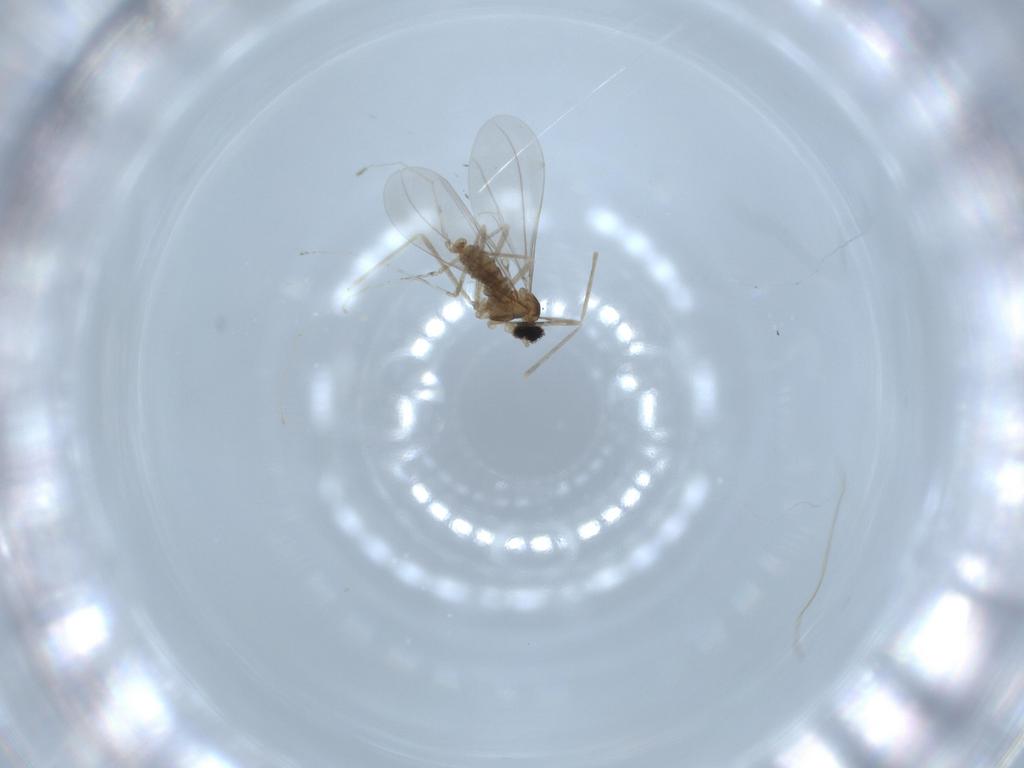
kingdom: Animalia
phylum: Arthropoda
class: Insecta
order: Diptera
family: Cecidomyiidae
